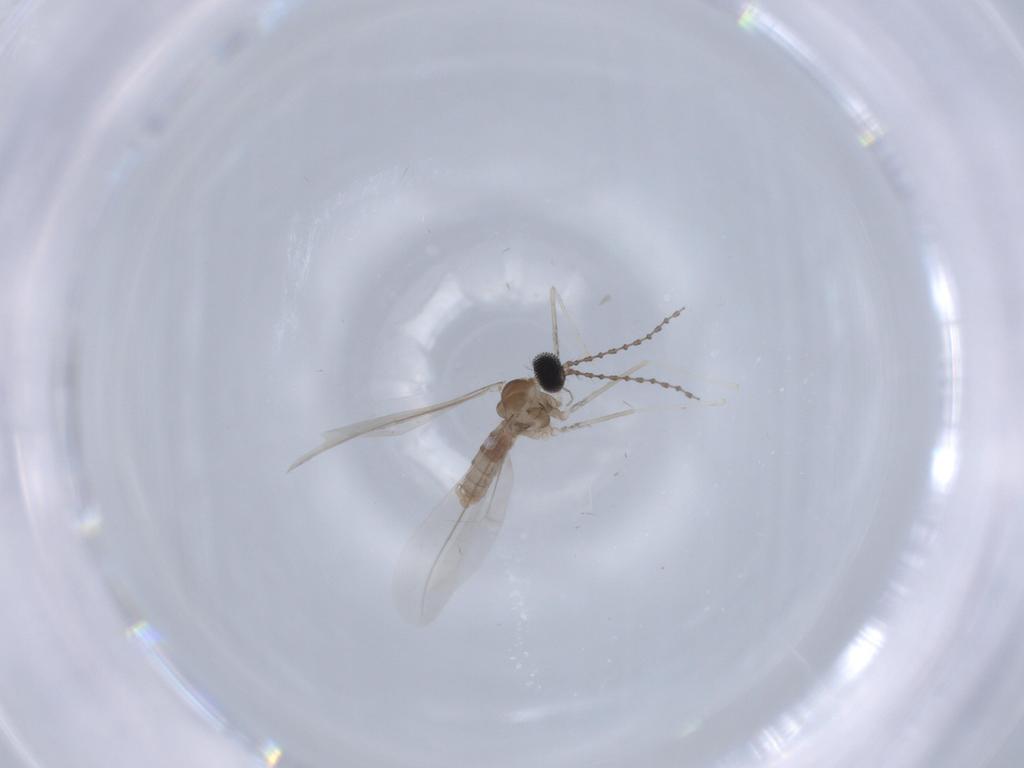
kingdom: Animalia
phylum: Arthropoda
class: Insecta
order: Diptera
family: Cecidomyiidae
